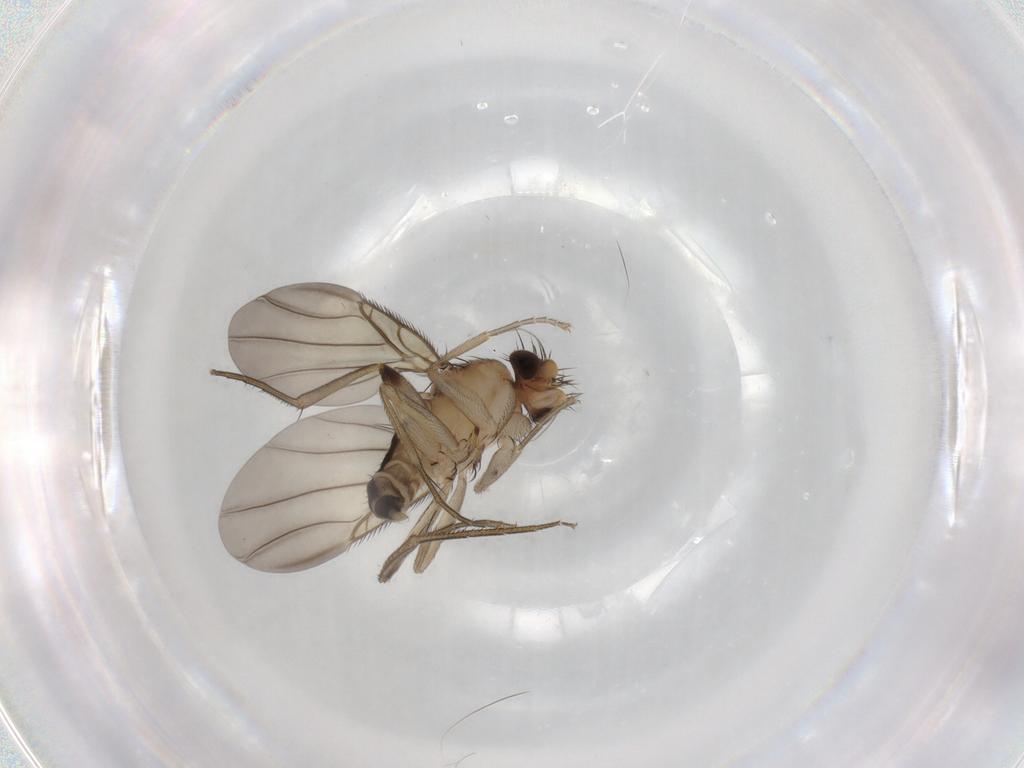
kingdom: Animalia
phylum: Arthropoda
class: Insecta
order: Diptera
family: Phoridae
